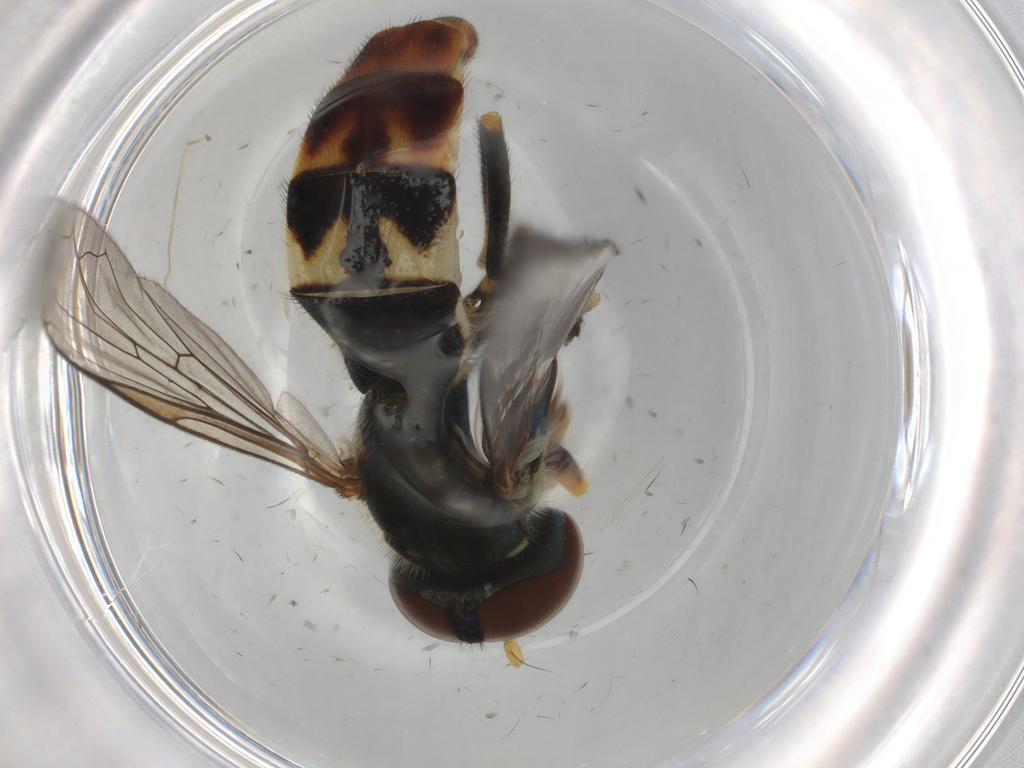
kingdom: Animalia
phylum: Arthropoda
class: Insecta
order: Diptera
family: Syrphidae
